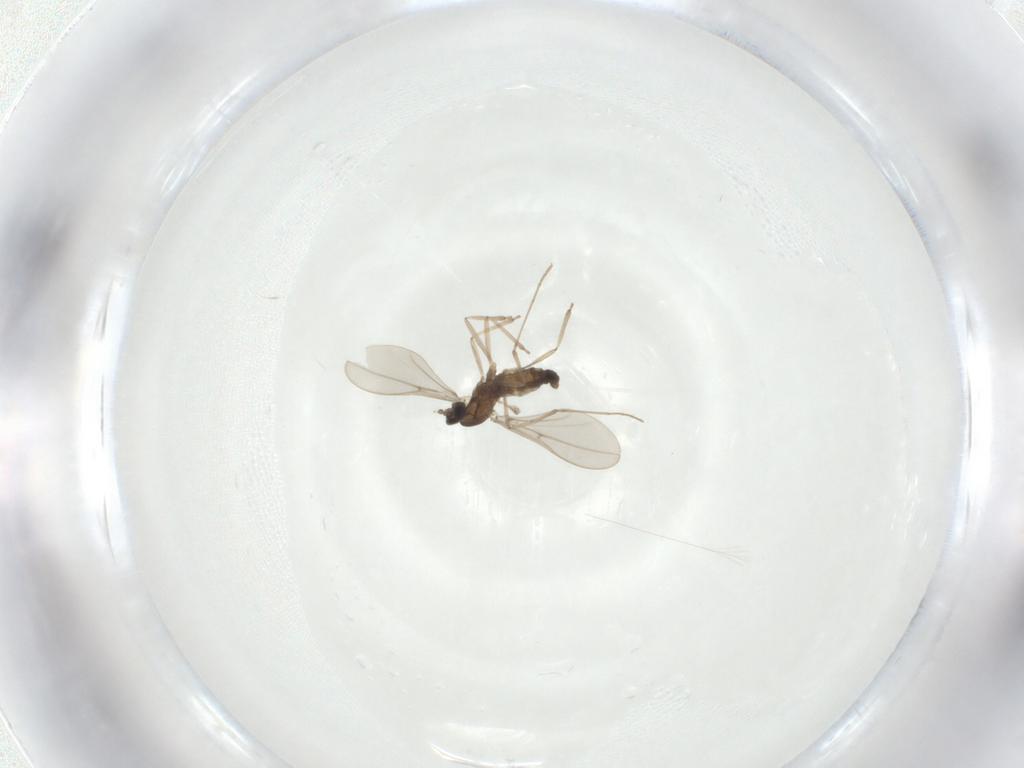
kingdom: Animalia
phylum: Arthropoda
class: Insecta
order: Diptera
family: Cecidomyiidae
